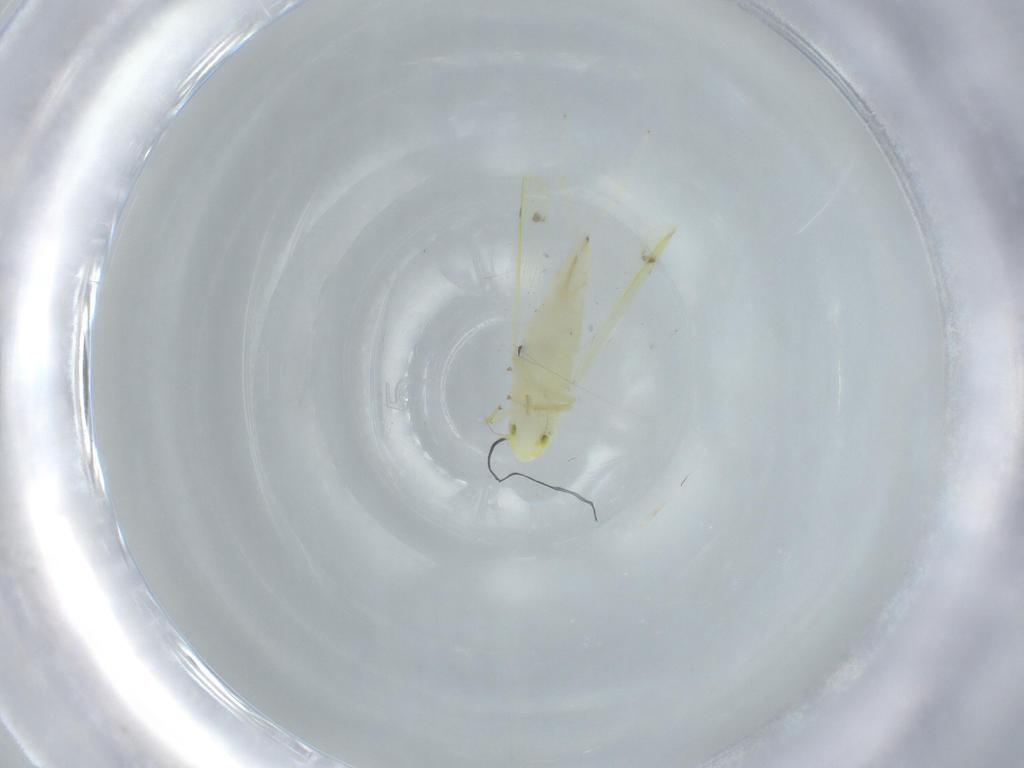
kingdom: Animalia
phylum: Arthropoda
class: Insecta
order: Hemiptera
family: Cicadellidae
